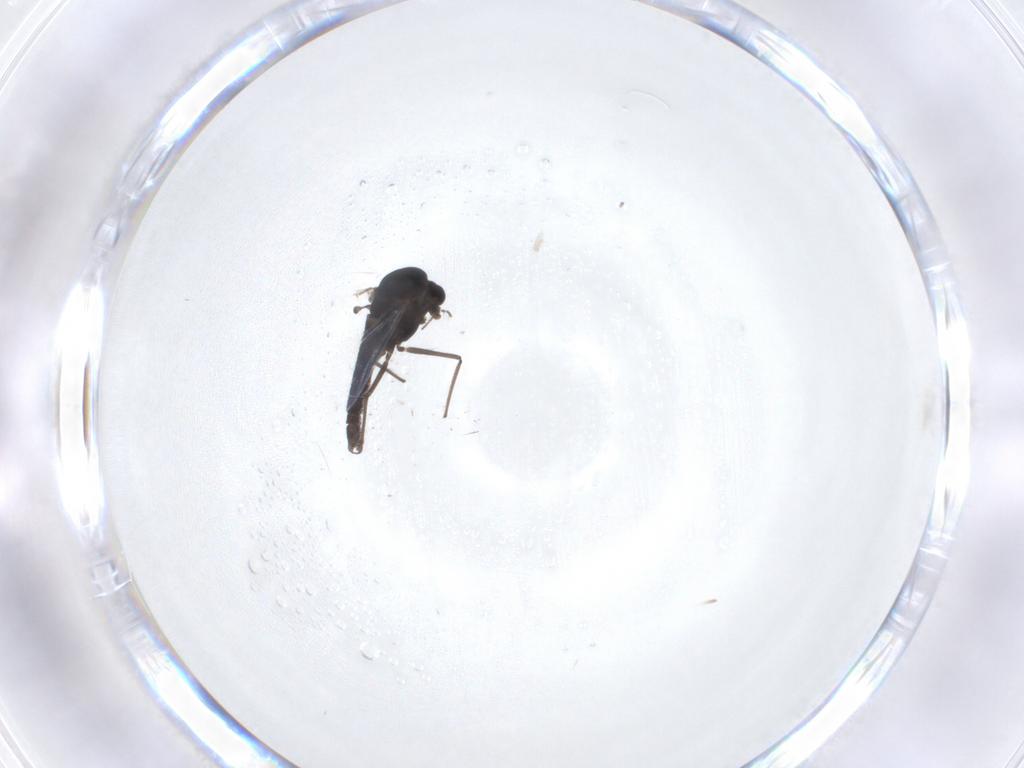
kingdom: Animalia
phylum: Arthropoda
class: Insecta
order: Diptera
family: Chironomidae
